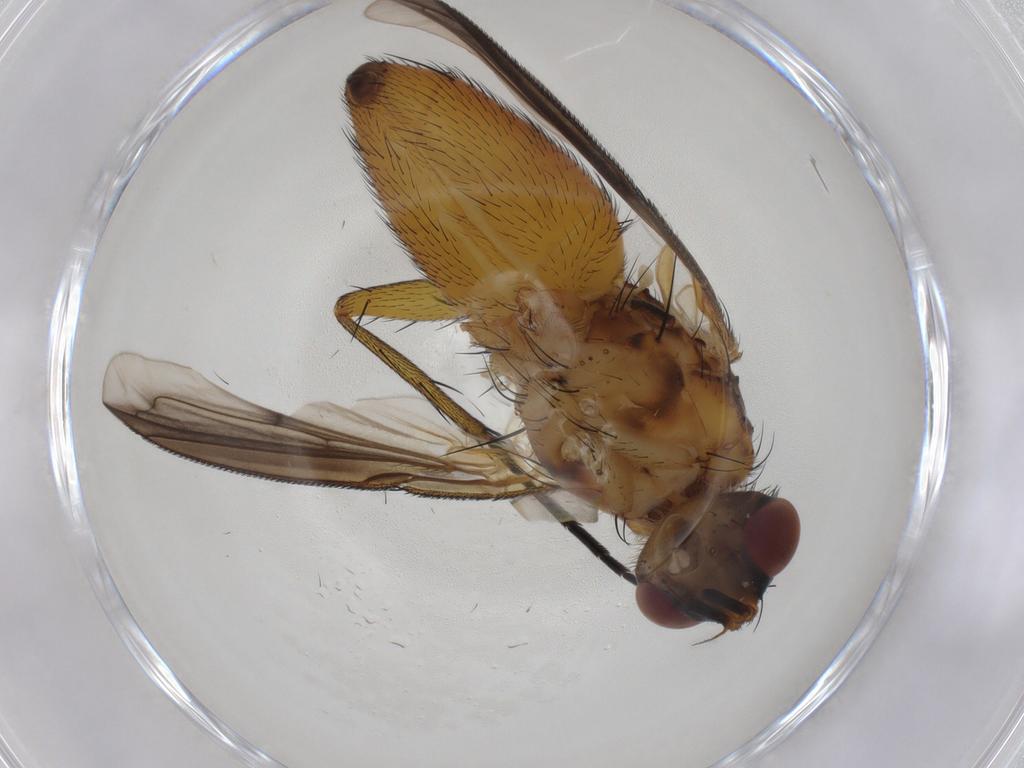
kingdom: Animalia
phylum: Arthropoda
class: Insecta
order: Diptera
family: Tachinidae
